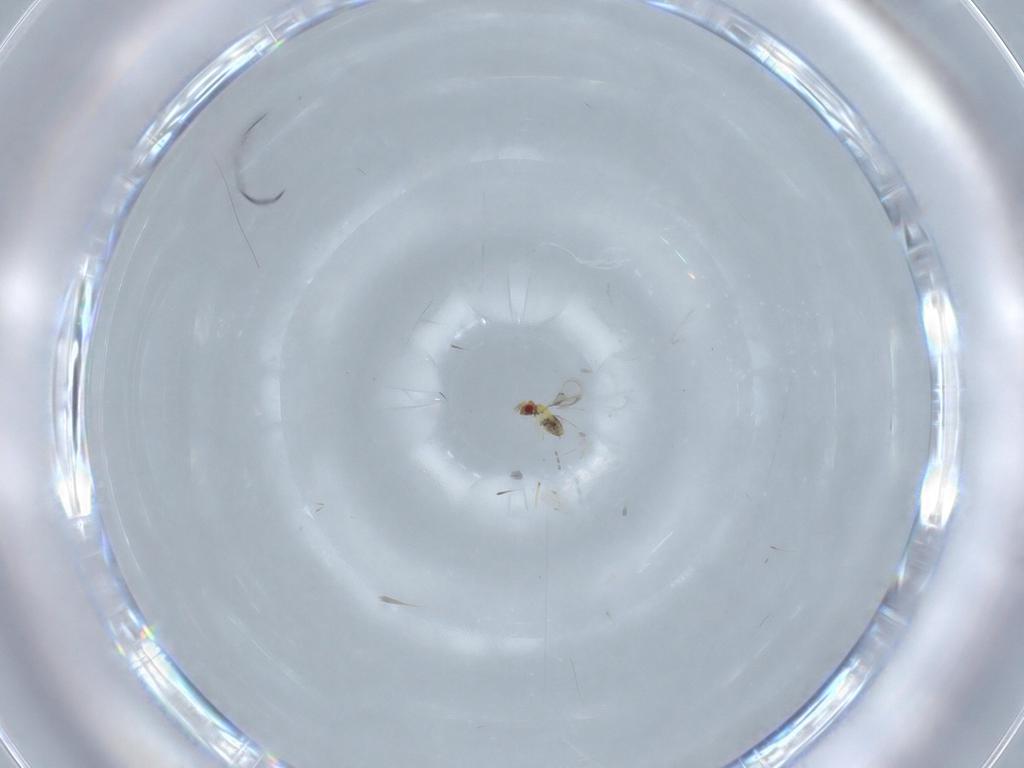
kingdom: Animalia
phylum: Arthropoda
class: Insecta
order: Hymenoptera
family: Trichogrammatidae
